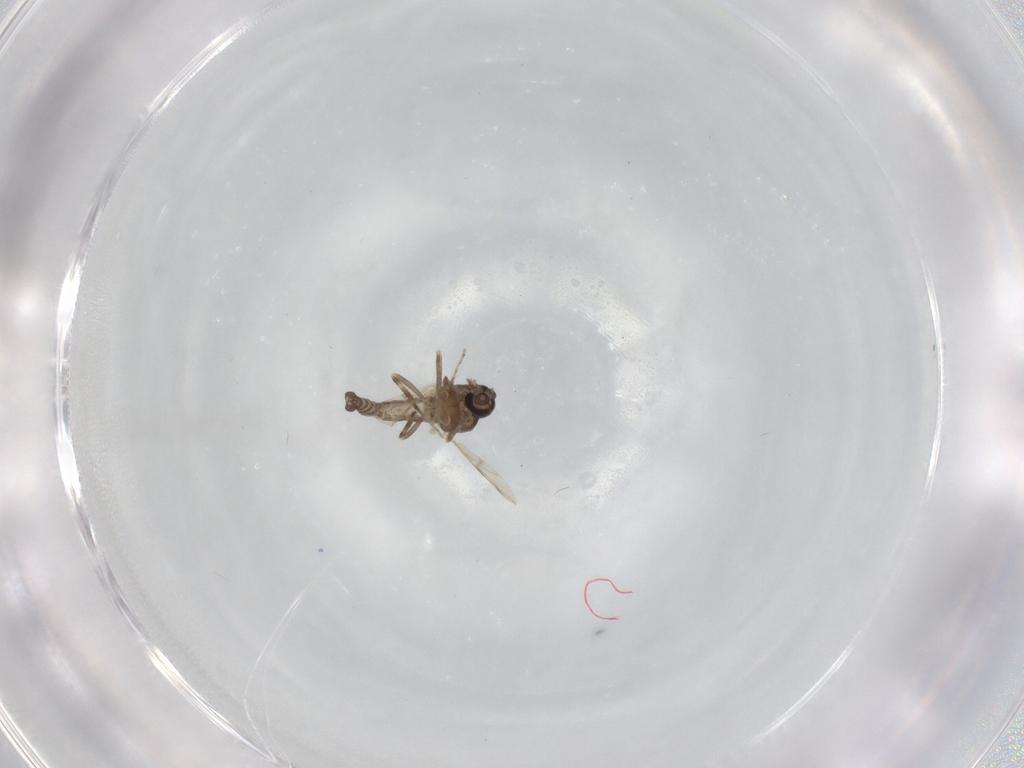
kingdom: Animalia
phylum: Arthropoda
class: Insecta
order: Diptera
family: Ceratopogonidae
